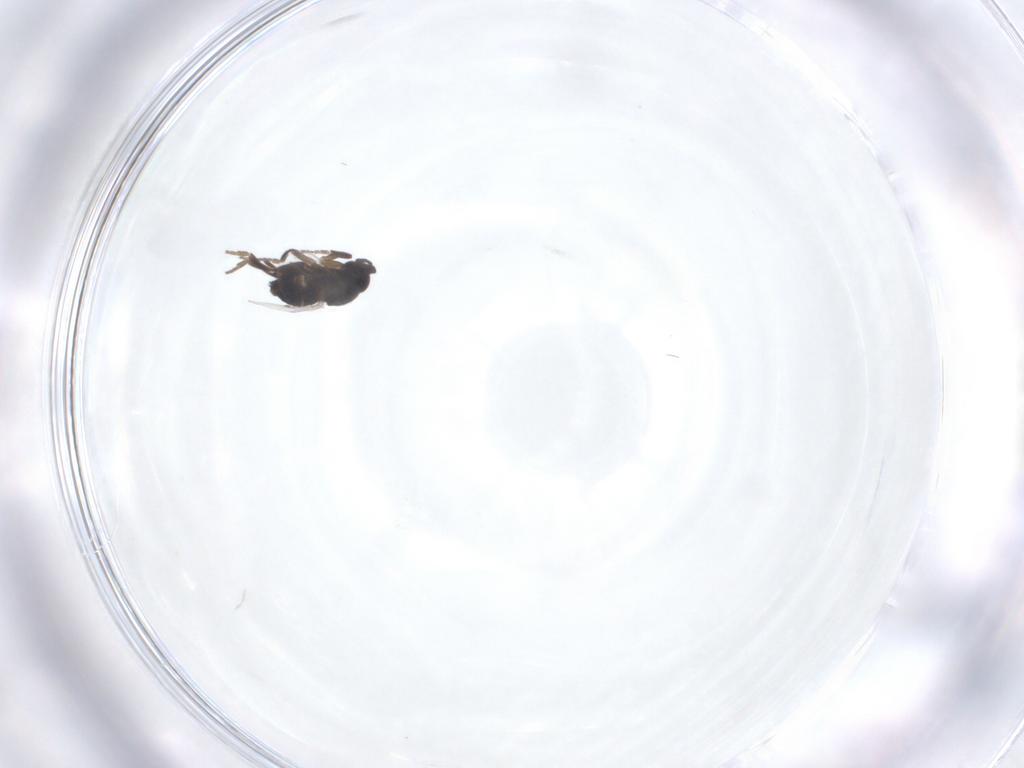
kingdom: Animalia
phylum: Arthropoda
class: Insecta
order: Diptera
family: Phoridae
